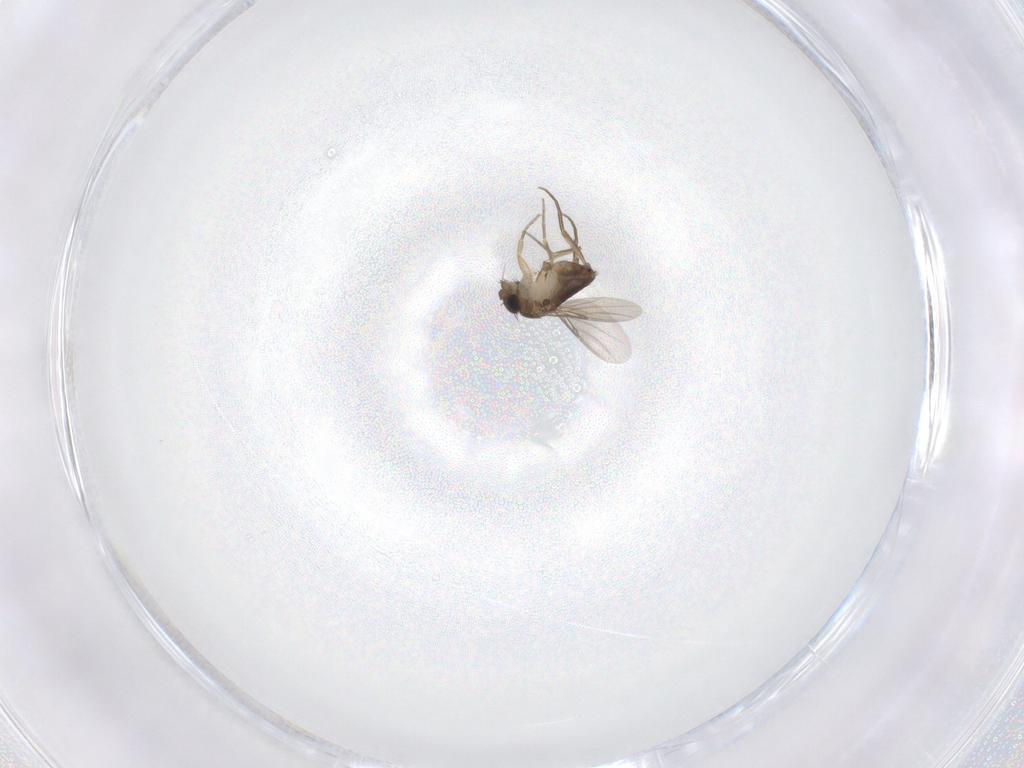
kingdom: Animalia
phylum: Arthropoda
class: Insecta
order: Diptera
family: Phoridae
